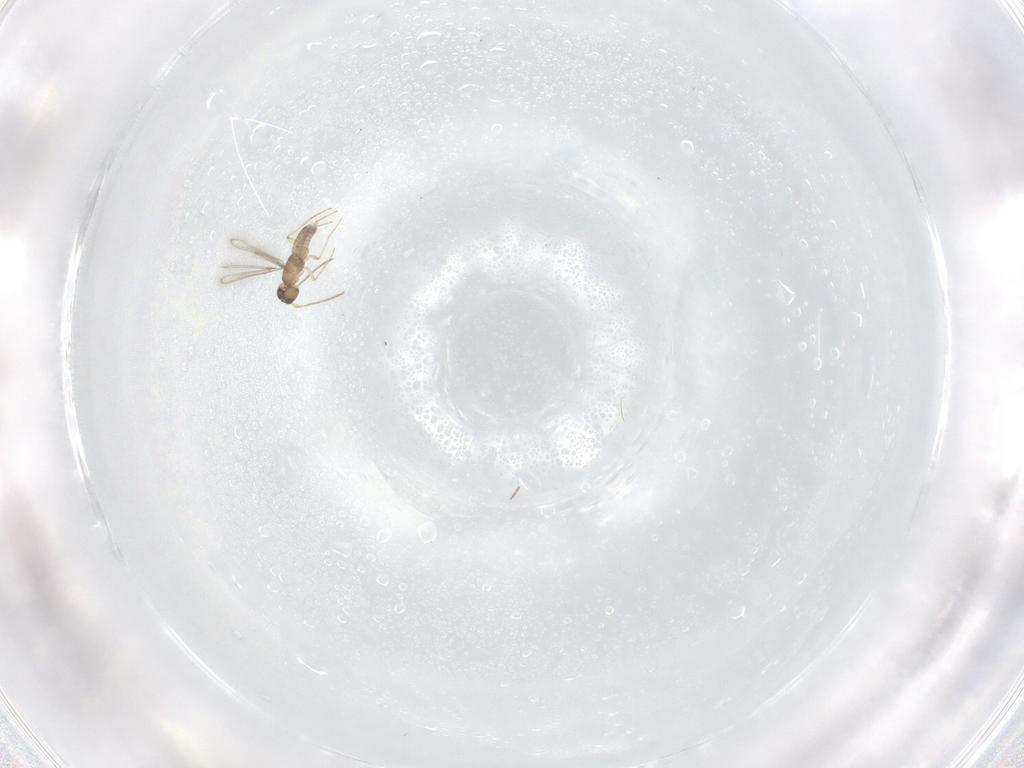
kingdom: Animalia
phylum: Arthropoda
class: Insecta
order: Hymenoptera
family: Mymaridae
